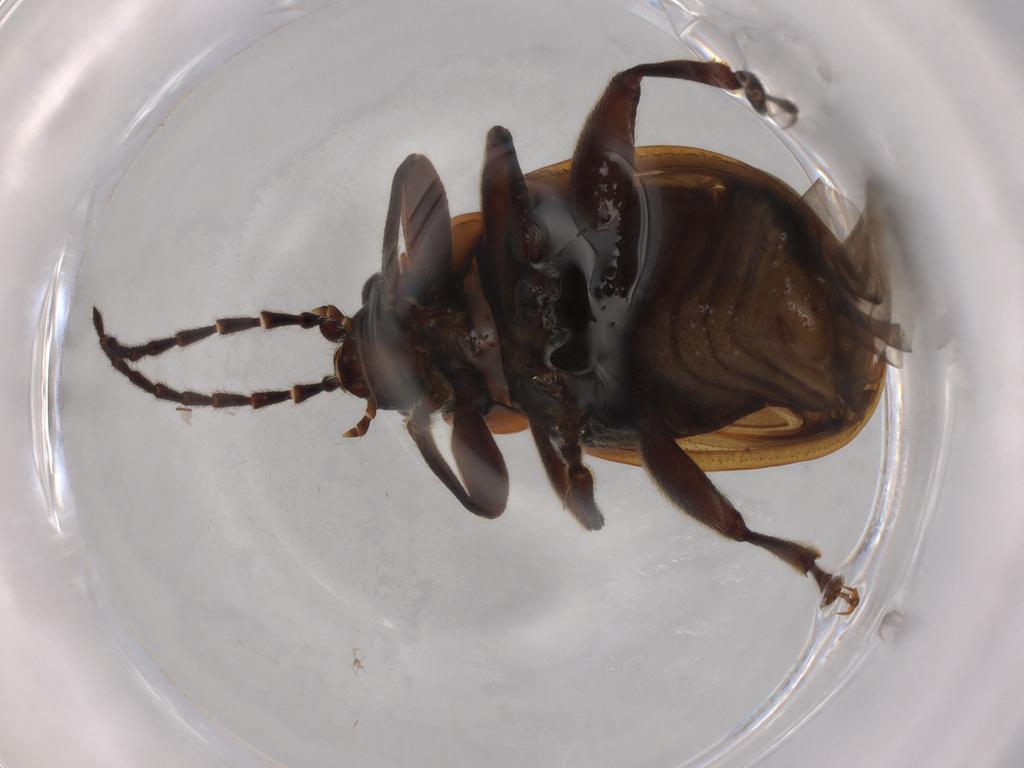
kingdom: Animalia
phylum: Arthropoda
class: Insecta
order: Coleoptera
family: Chrysomelidae
